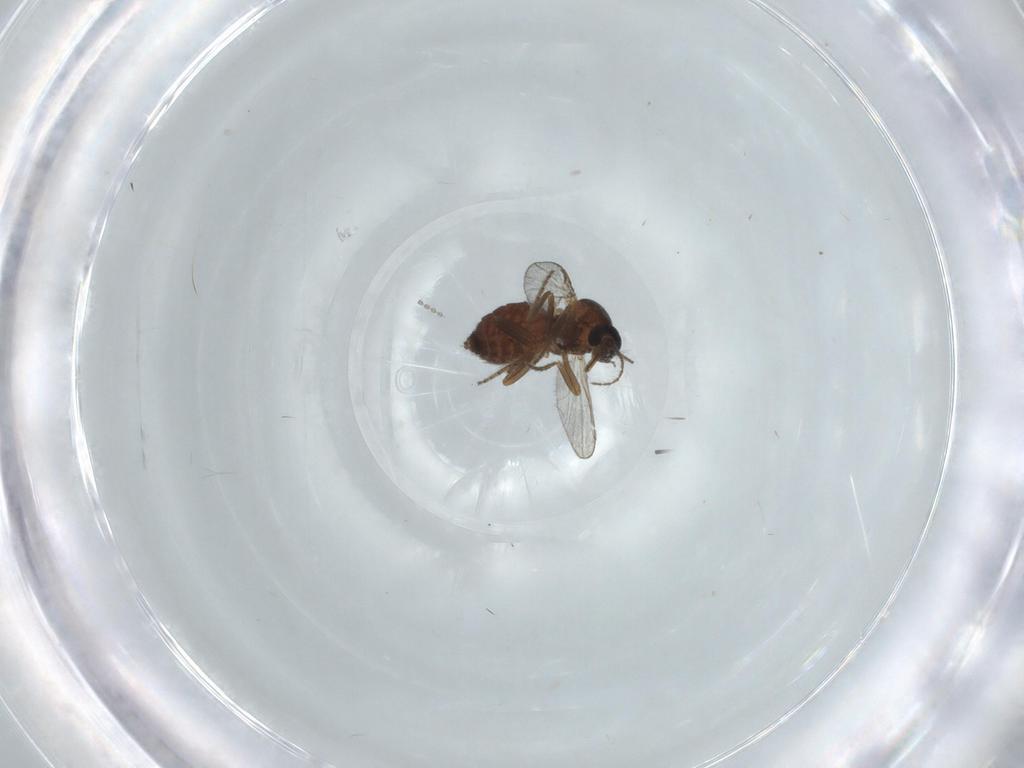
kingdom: Animalia
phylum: Arthropoda
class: Insecta
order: Diptera
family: Ceratopogonidae
